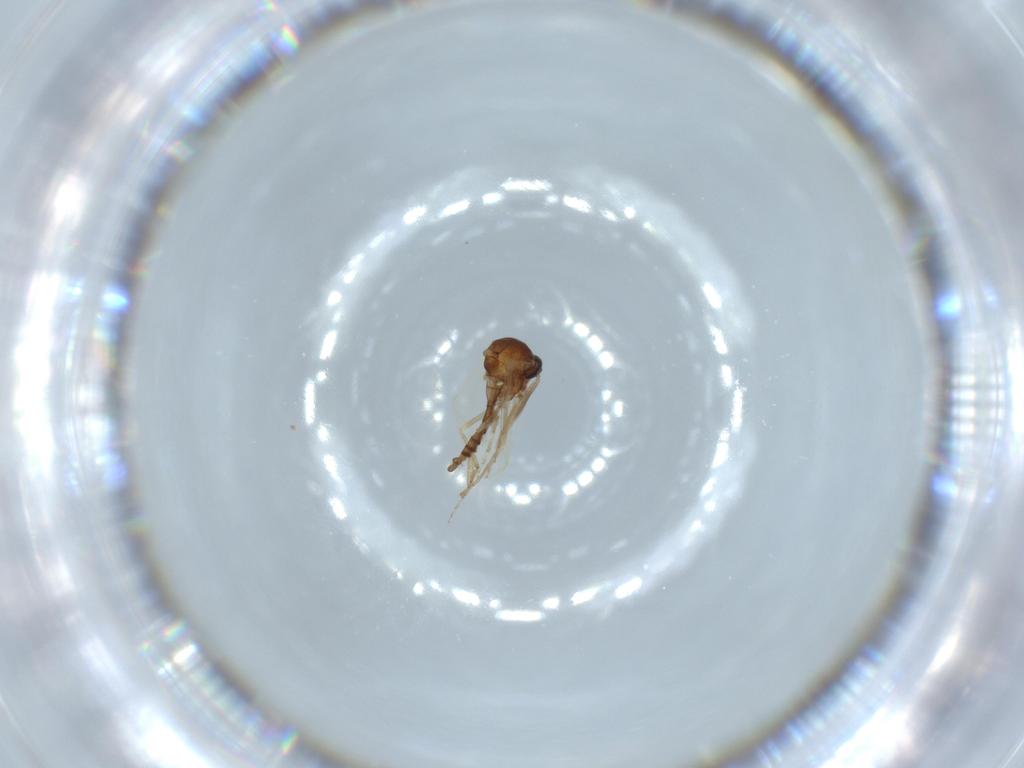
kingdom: Animalia
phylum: Arthropoda
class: Insecta
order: Diptera
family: Ceratopogonidae
